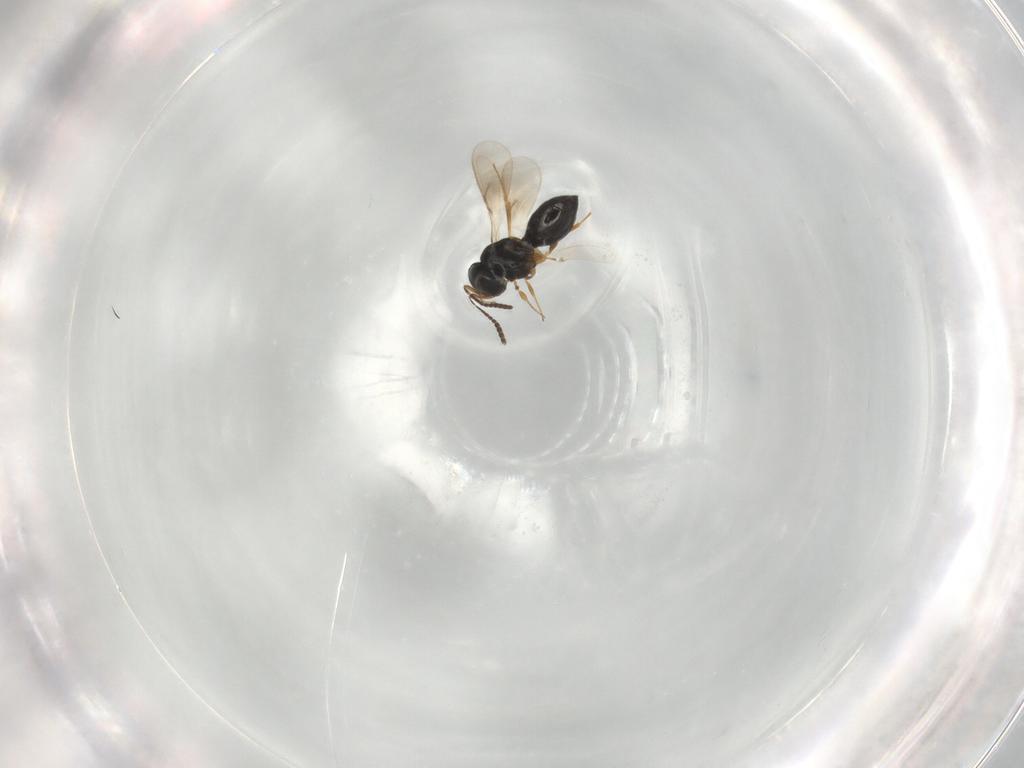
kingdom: Animalia
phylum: Arthropoda
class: Insecta
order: Hymenoptera
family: Scelionidae
